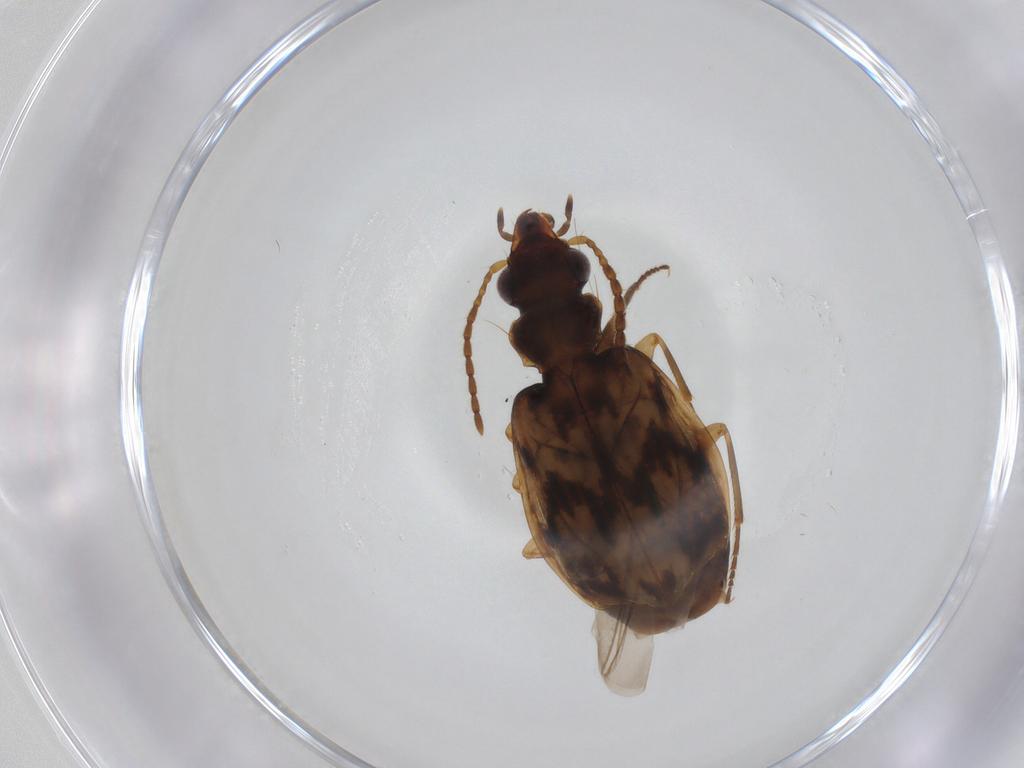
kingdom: Animalia
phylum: Arthropoda
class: Insecta
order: Coleoptera
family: Carabidae
